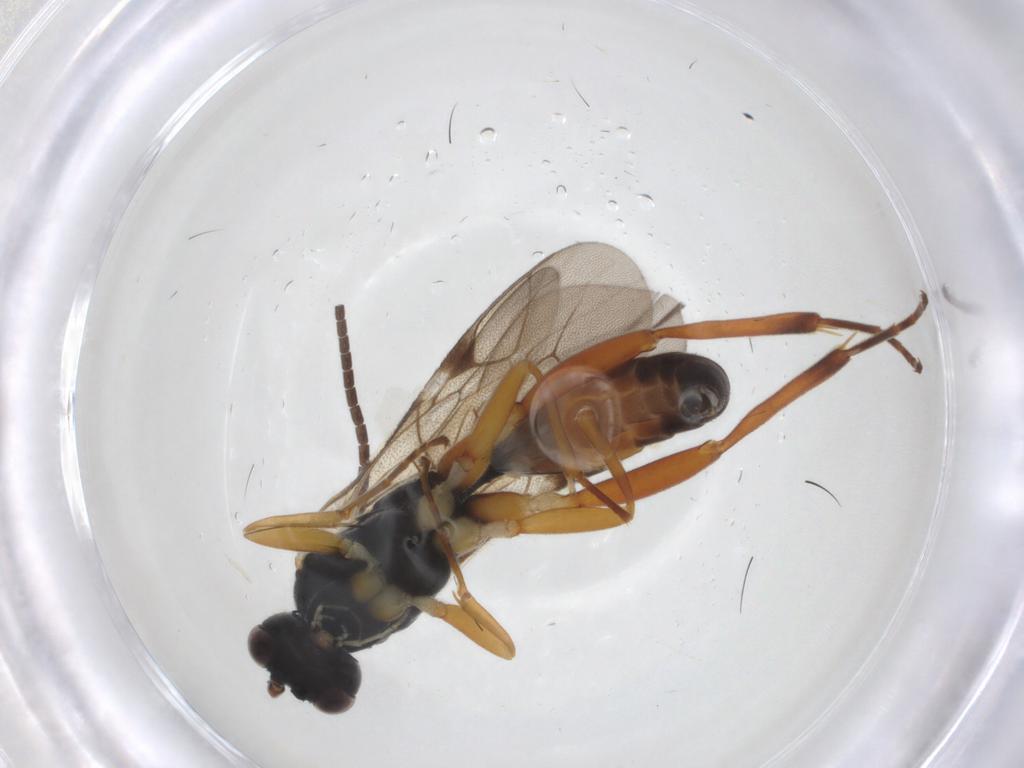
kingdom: Animalia
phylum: Arthropoda
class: Insecta
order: Hymenoptera
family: Ichneumonidae
